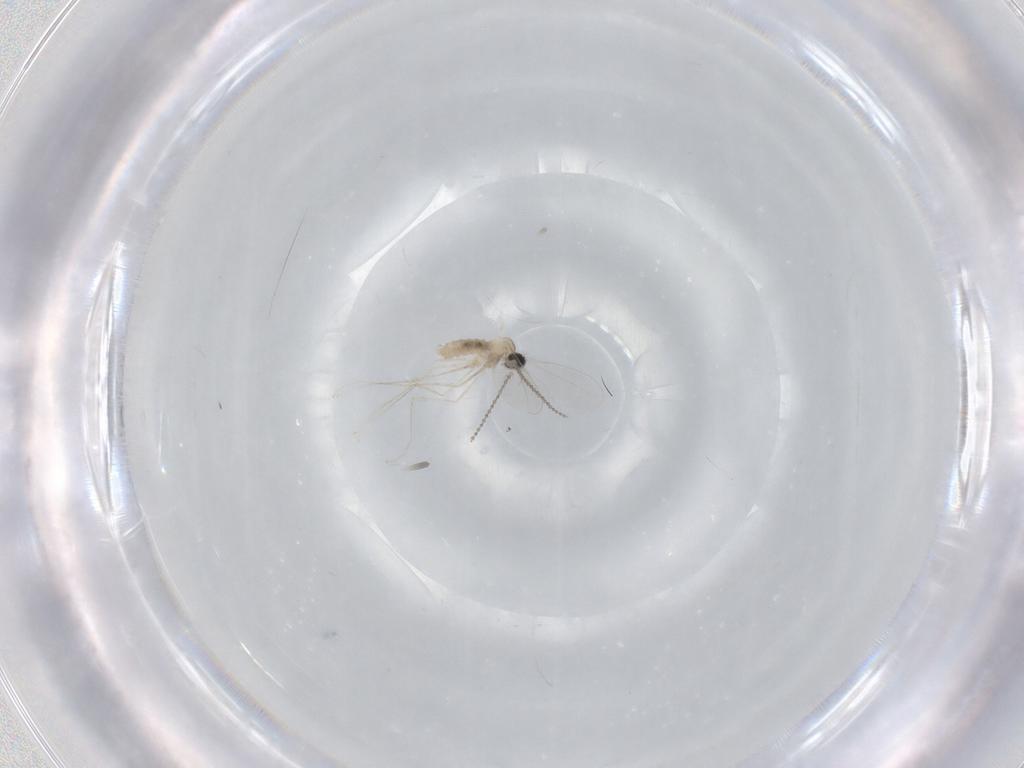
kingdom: Animalia
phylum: Arthropoda
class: Insecta
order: Diptera
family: Cecidomyiidae
